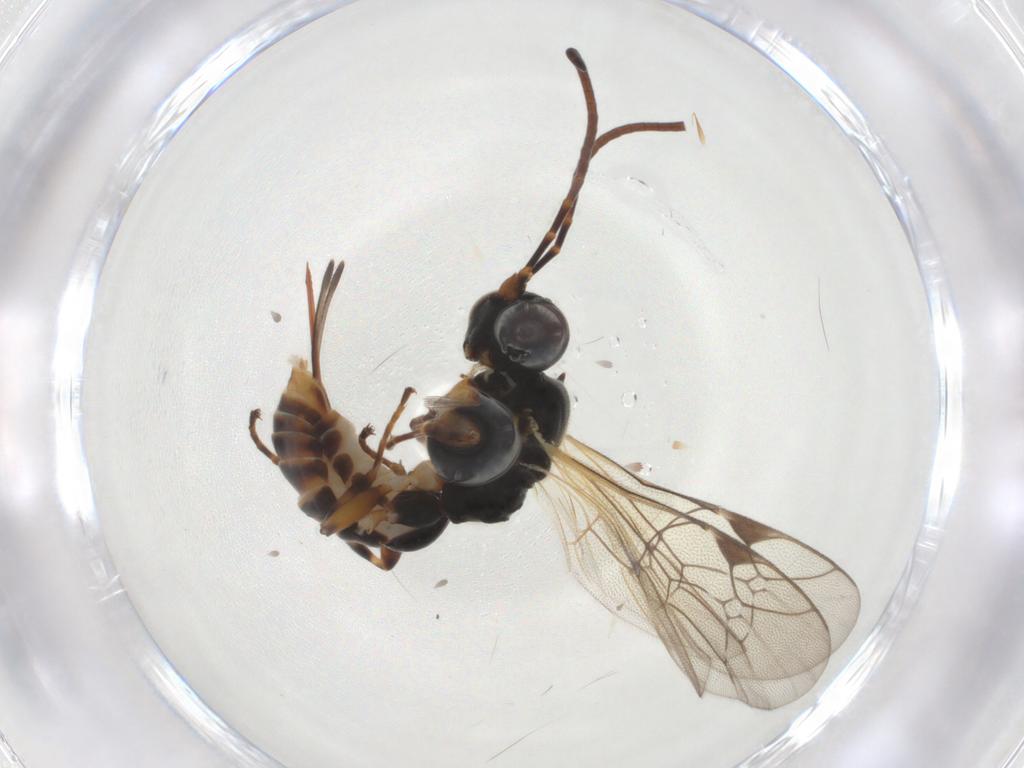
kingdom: Animalia
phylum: Arthropoda
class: Insecta
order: Hymenoptera
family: Ichneumonidae
